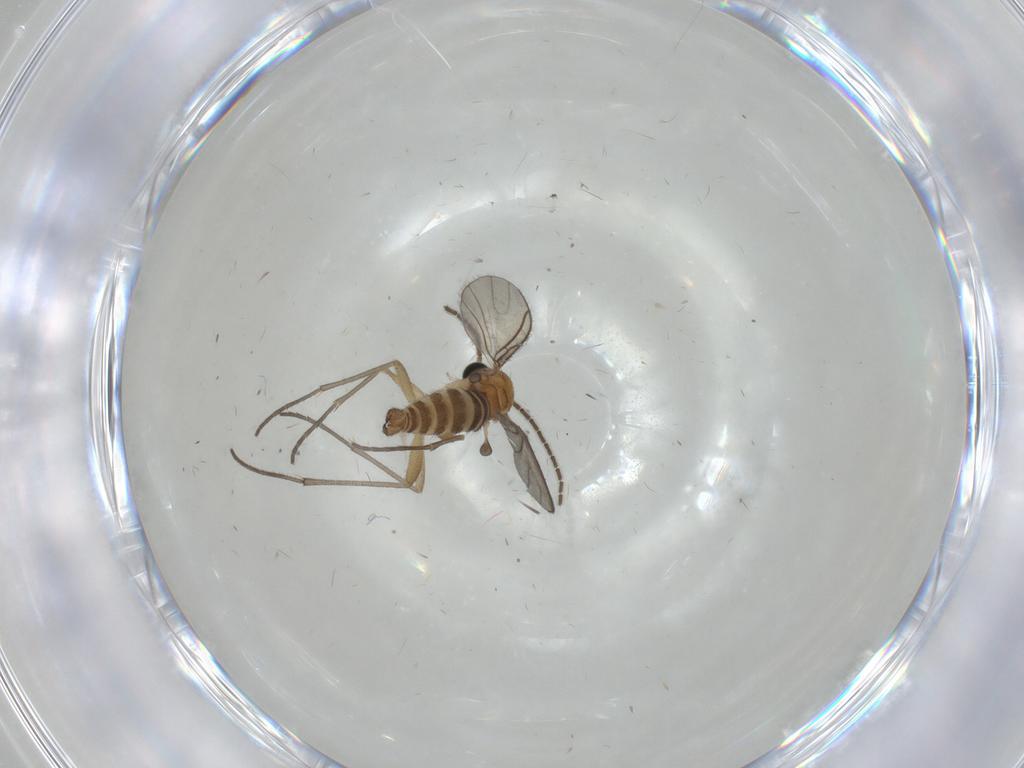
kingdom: Animalia
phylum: Arthropoda
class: Insecta
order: Diptera
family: Sciaridae
